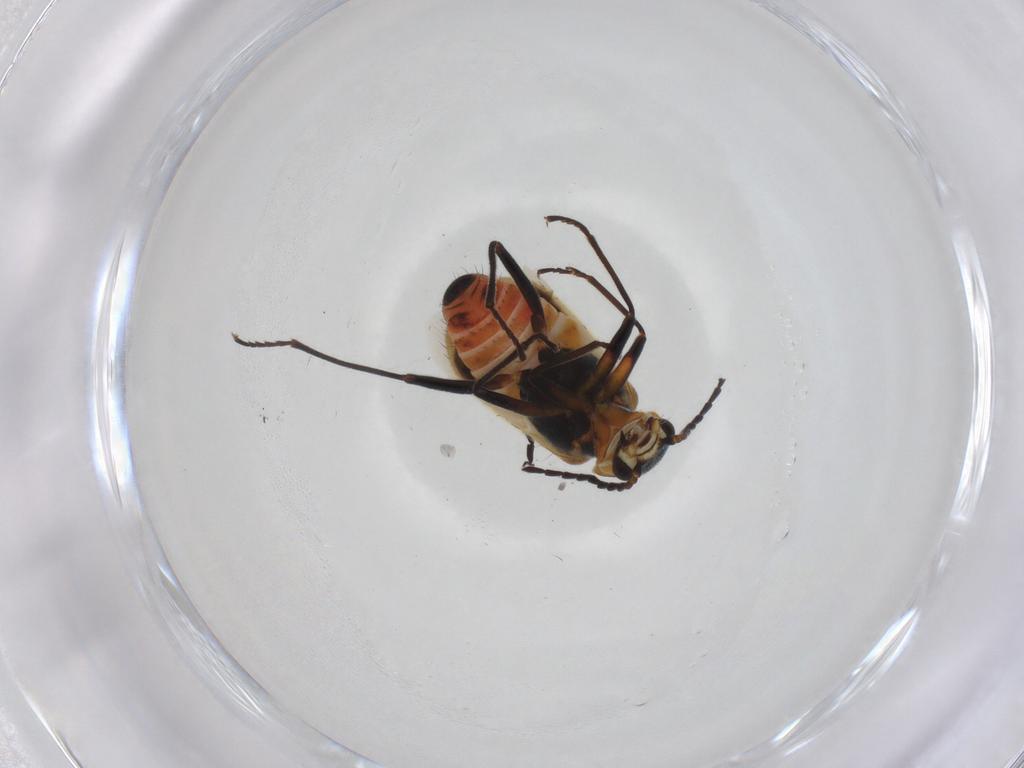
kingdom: Animalia
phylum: Arthropoda
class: Insecta
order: Coleoptera
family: Melyridae
